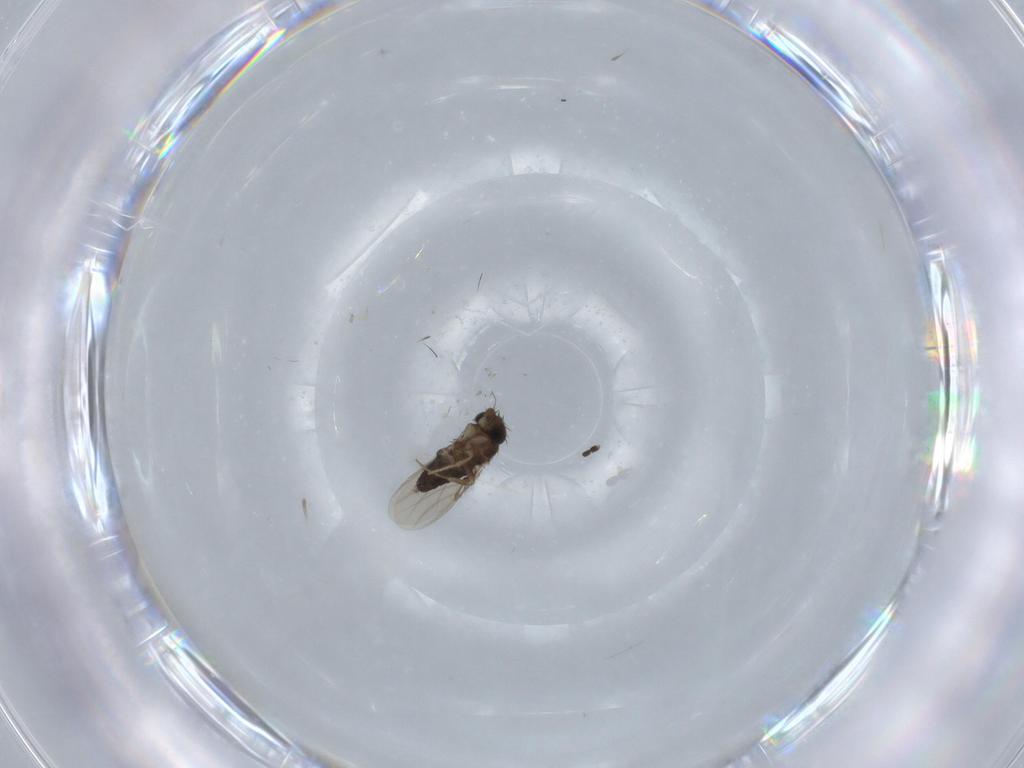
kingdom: Animalia
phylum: Arthropoda
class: Insecta
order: Diptera
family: Phoridae
